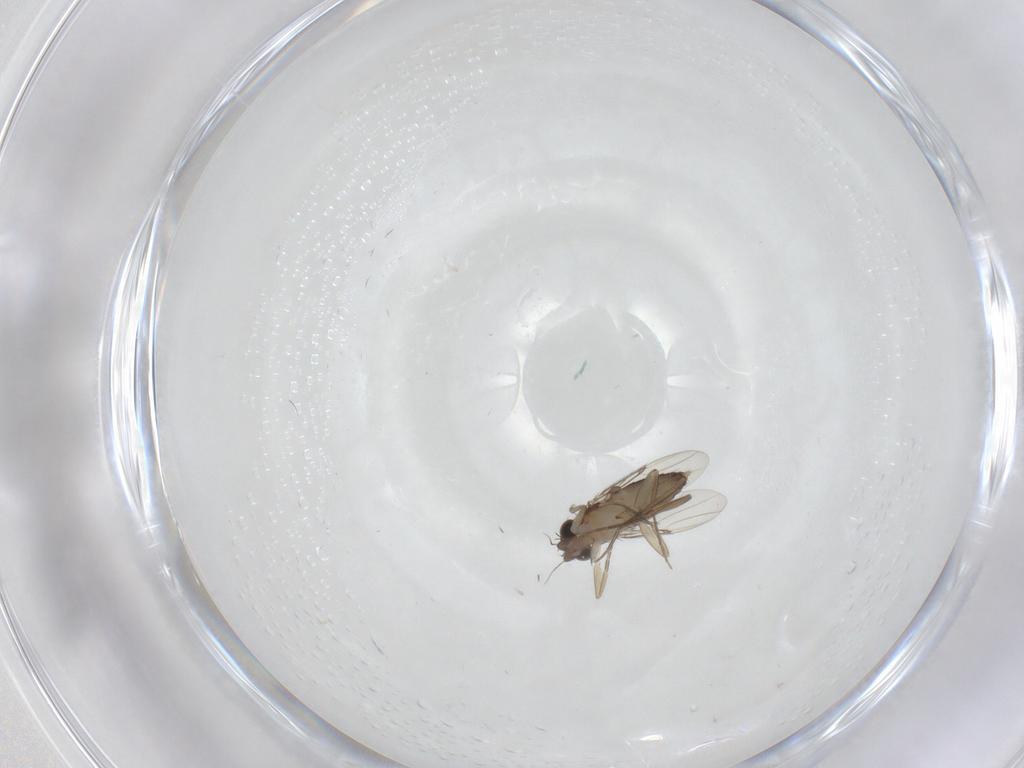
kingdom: Animalia
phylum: Arthropoda
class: Insecta
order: Diptera
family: Phoridae
